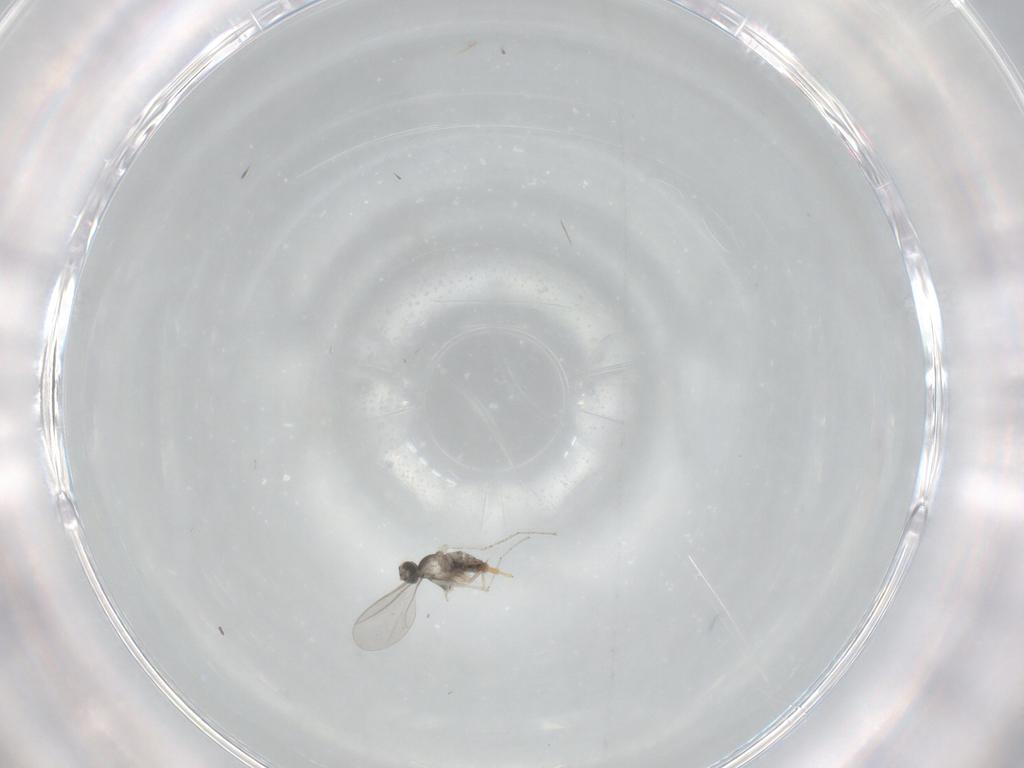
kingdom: Animalia
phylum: Arthropoda
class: Insecta
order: Diptera
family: Cecidomyiidae
